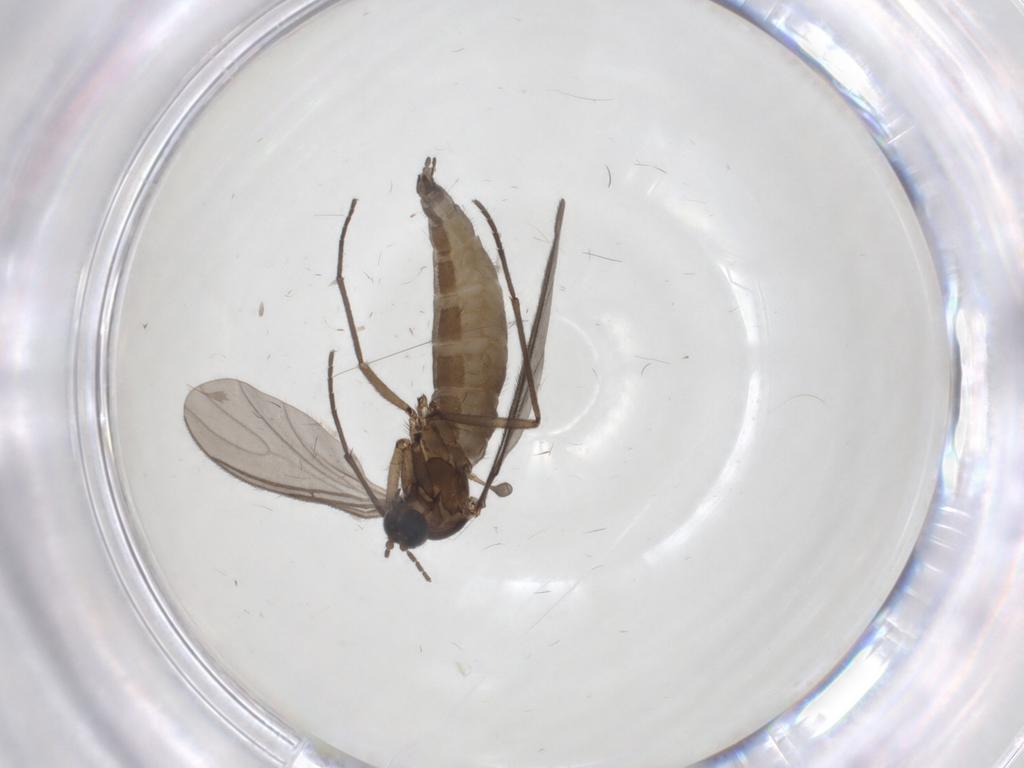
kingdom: Animalia
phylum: Arthropoda
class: Insecta
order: Diptera
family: Sciaridae
